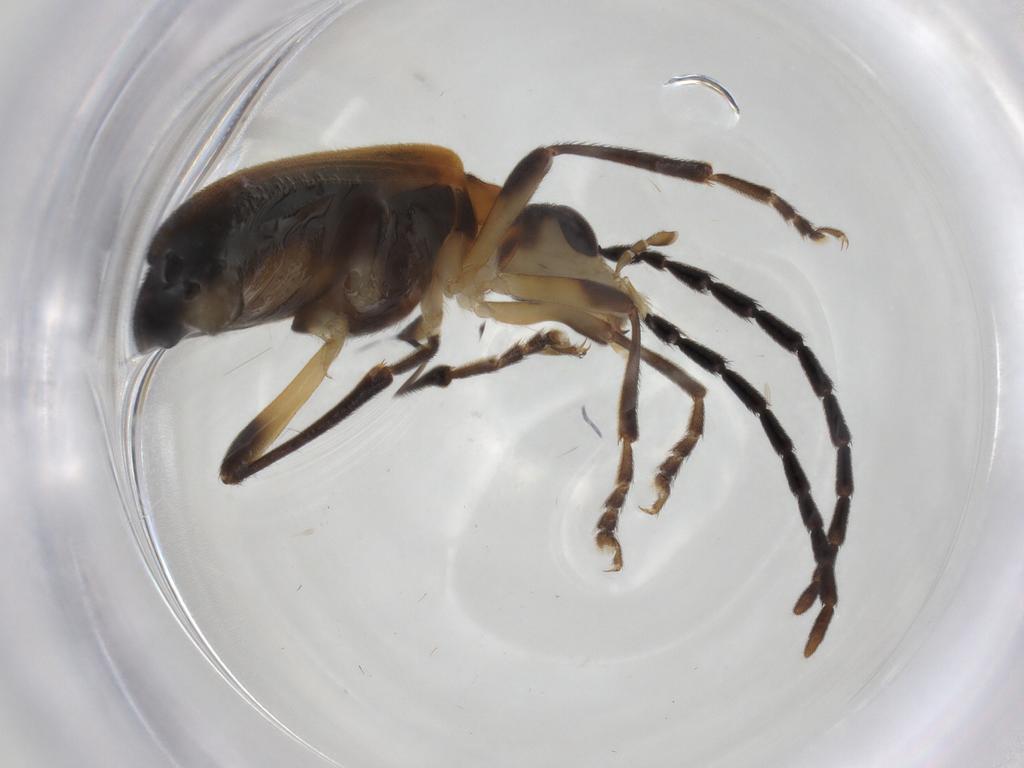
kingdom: Animalia
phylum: Arthropoda
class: Insecta
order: Coleoptera
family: Oedemeridae
